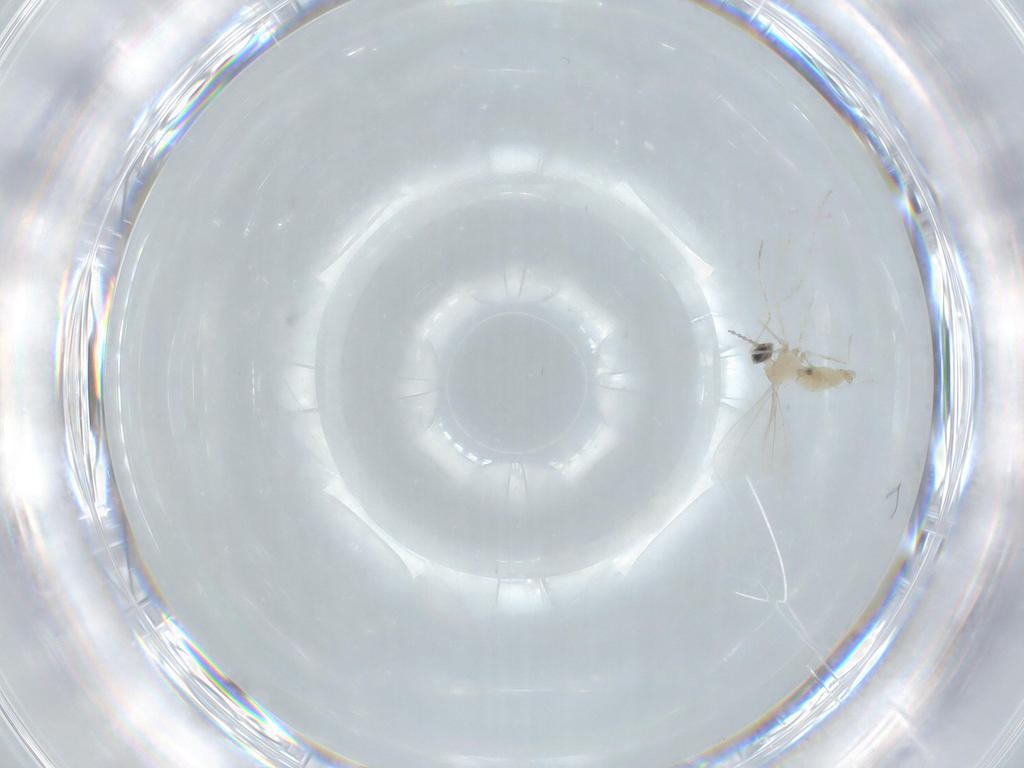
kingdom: Animalia
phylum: Arthropoda
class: Insecta
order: Diptera
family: Cecidomyiidae
